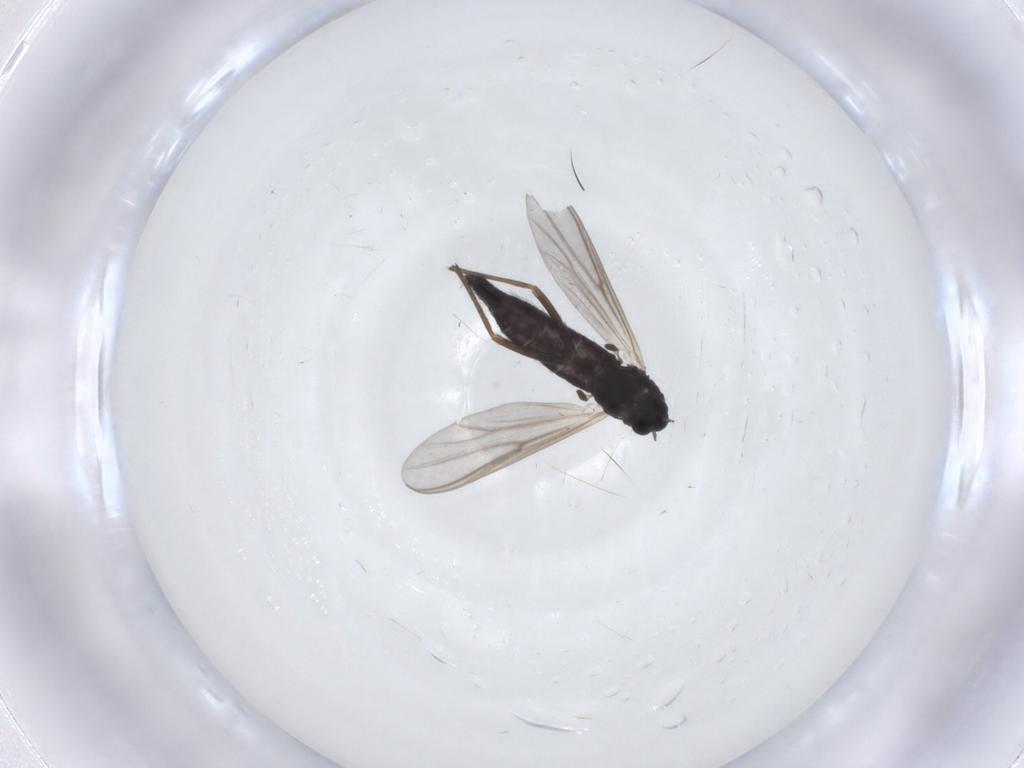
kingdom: Animalia
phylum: Arthropoda
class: Insecta
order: Diptera
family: Chironomidae
